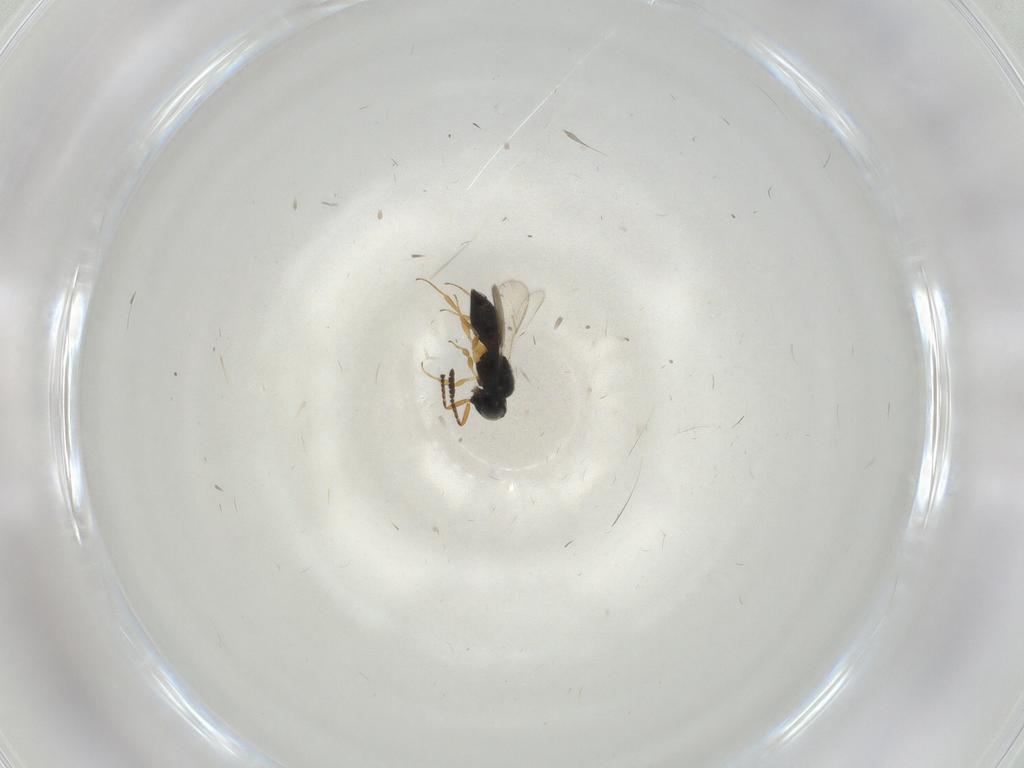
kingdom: Animalia
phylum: Arthropoda
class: Insecta
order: Hymenoptera
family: Scelionidae
